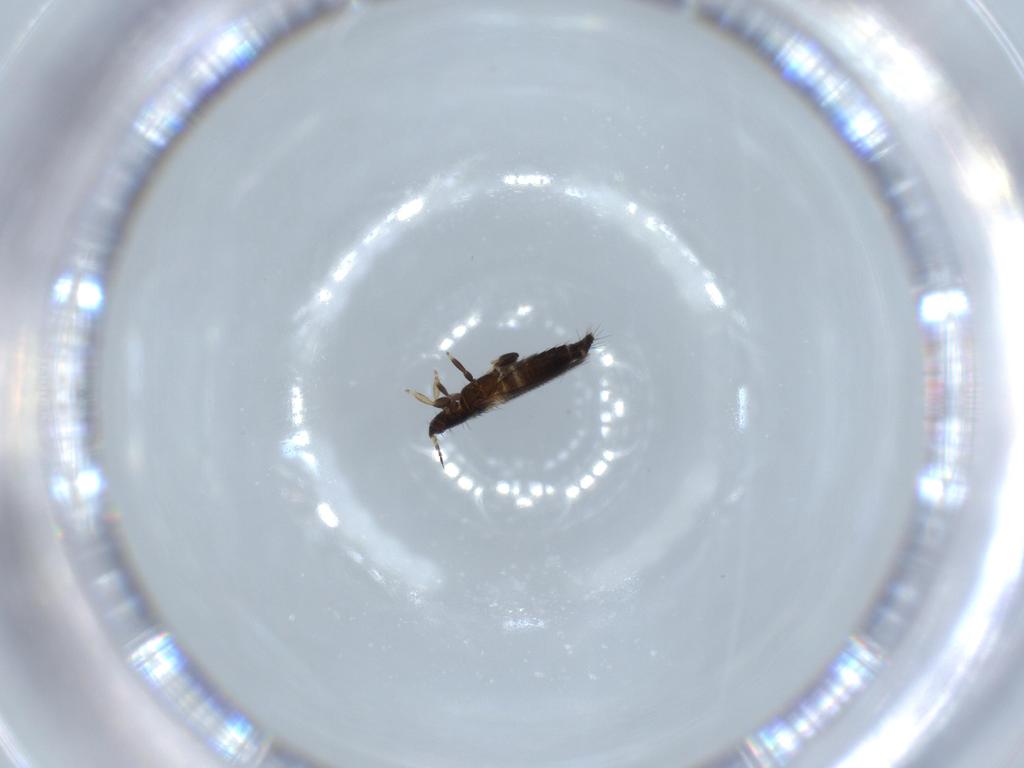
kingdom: Animalia
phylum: Arthropoda
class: Insecta
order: Thysanoptera
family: Thripidae
